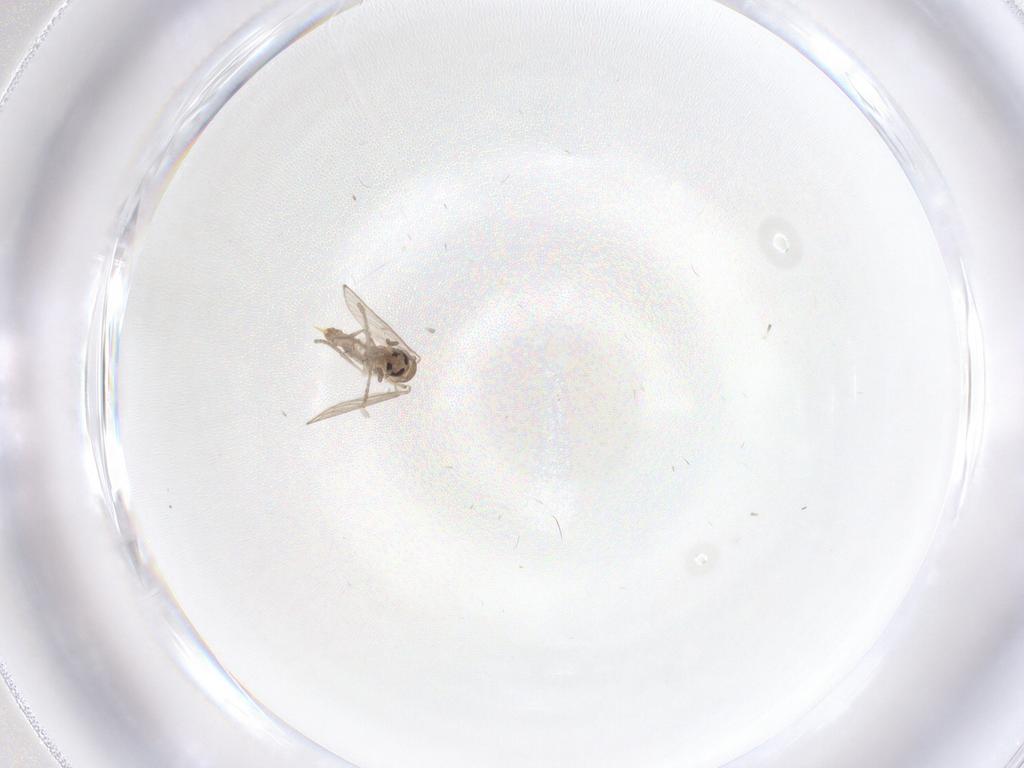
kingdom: Animalia
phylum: Arthropoda
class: Insecta
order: Diptera
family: Psychodidae
